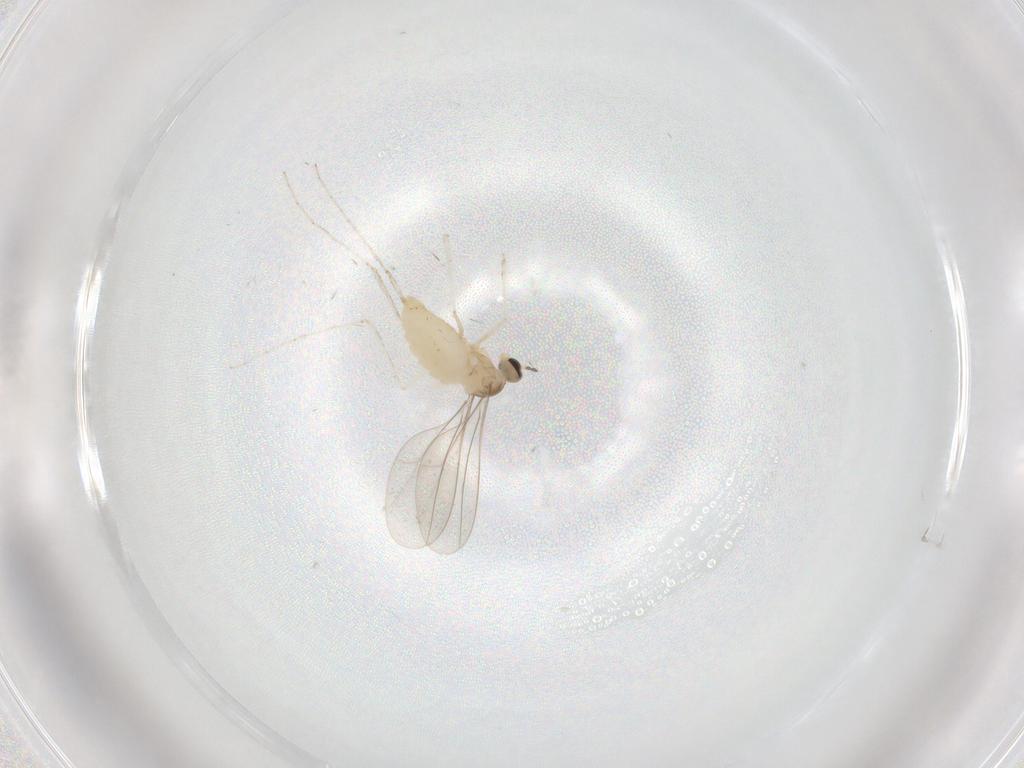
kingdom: Animalia
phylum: Arthropoda
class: Insecta
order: Diptera
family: Cecidomyiidae
